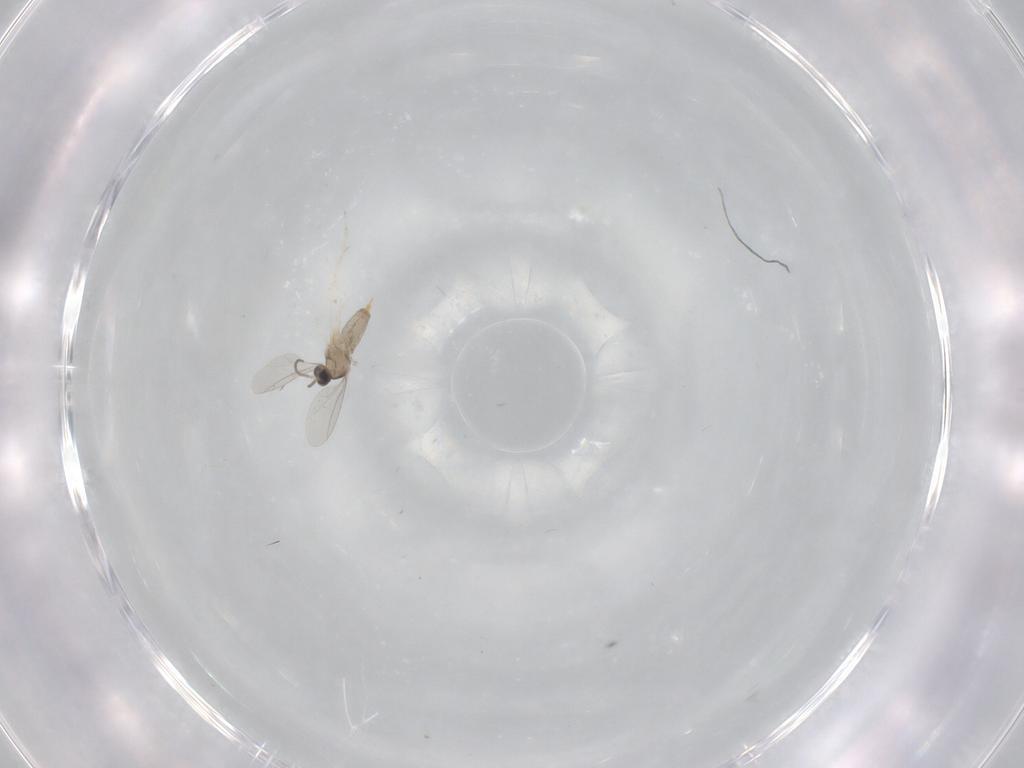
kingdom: Animalia
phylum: Arthropoda
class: Insecta
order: Diptera
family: Cecidomyiidae
